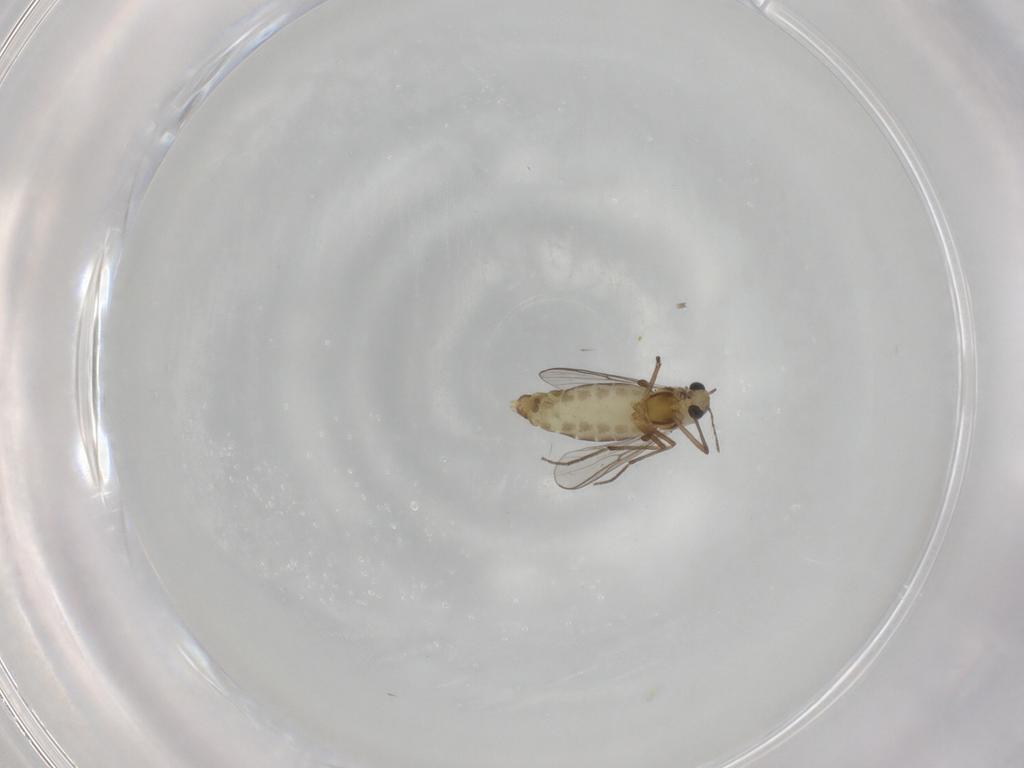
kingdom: Animalia
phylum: Arthropoda
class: Insecta
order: Diptera
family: Chironomidae
